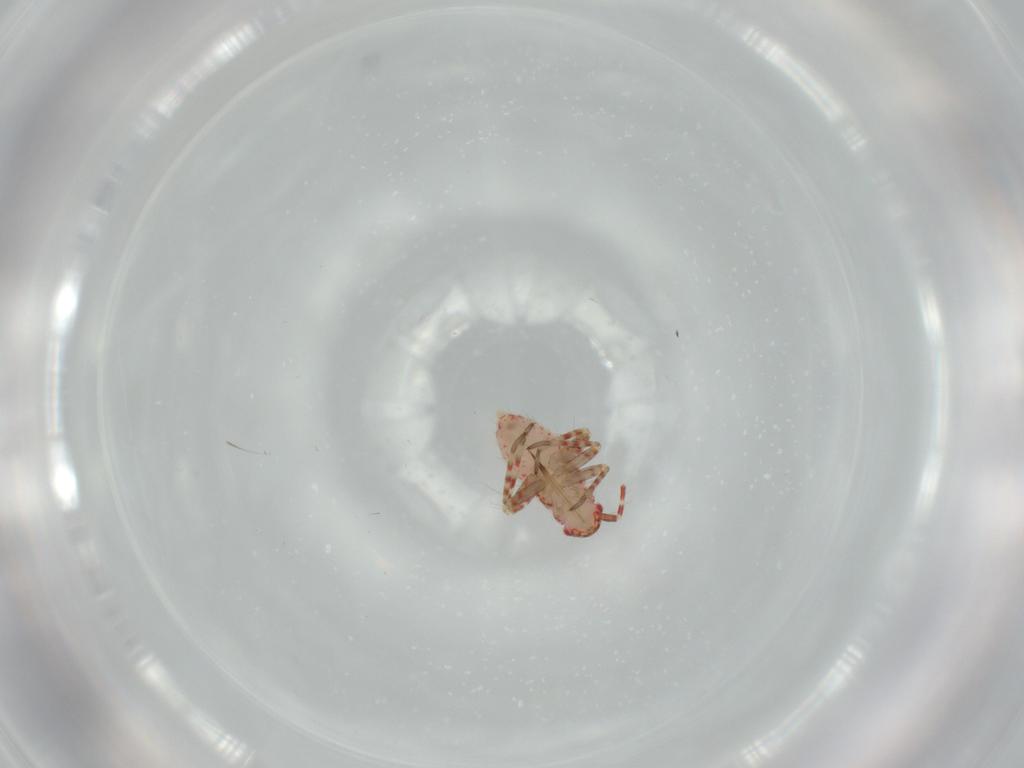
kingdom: Animalia
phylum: Arthropoda
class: Insecta
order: Hemiptera
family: Miridae
